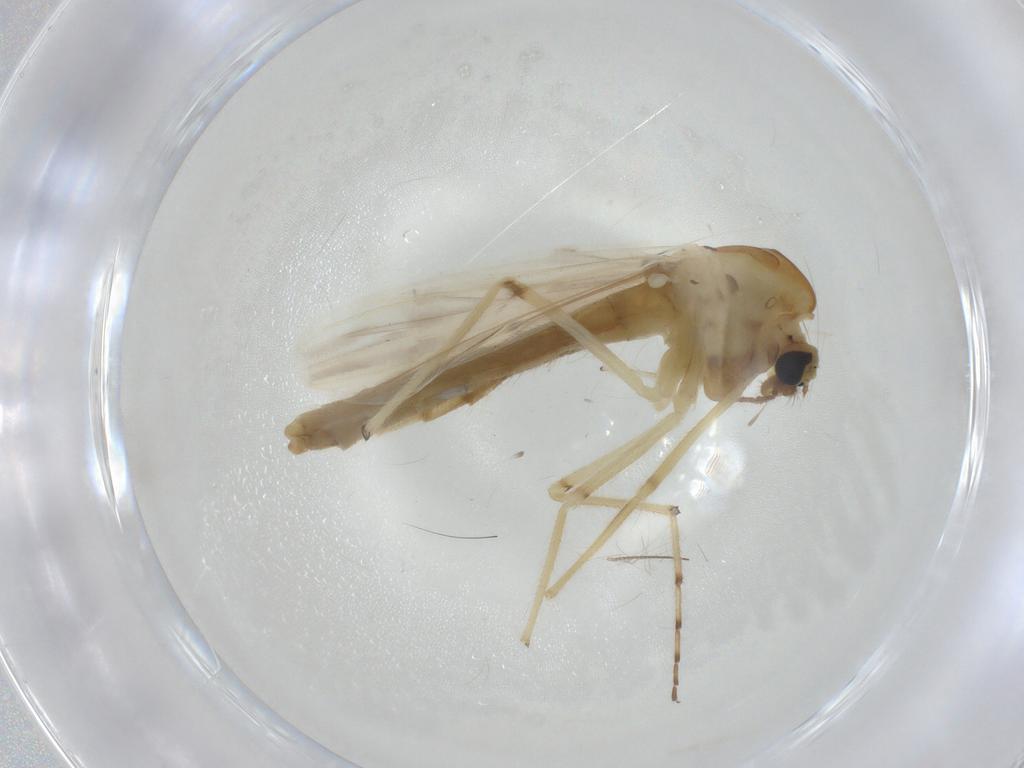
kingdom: Animalia
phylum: Arthropoda
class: Insecta
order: Diptera
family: Chironomidae
